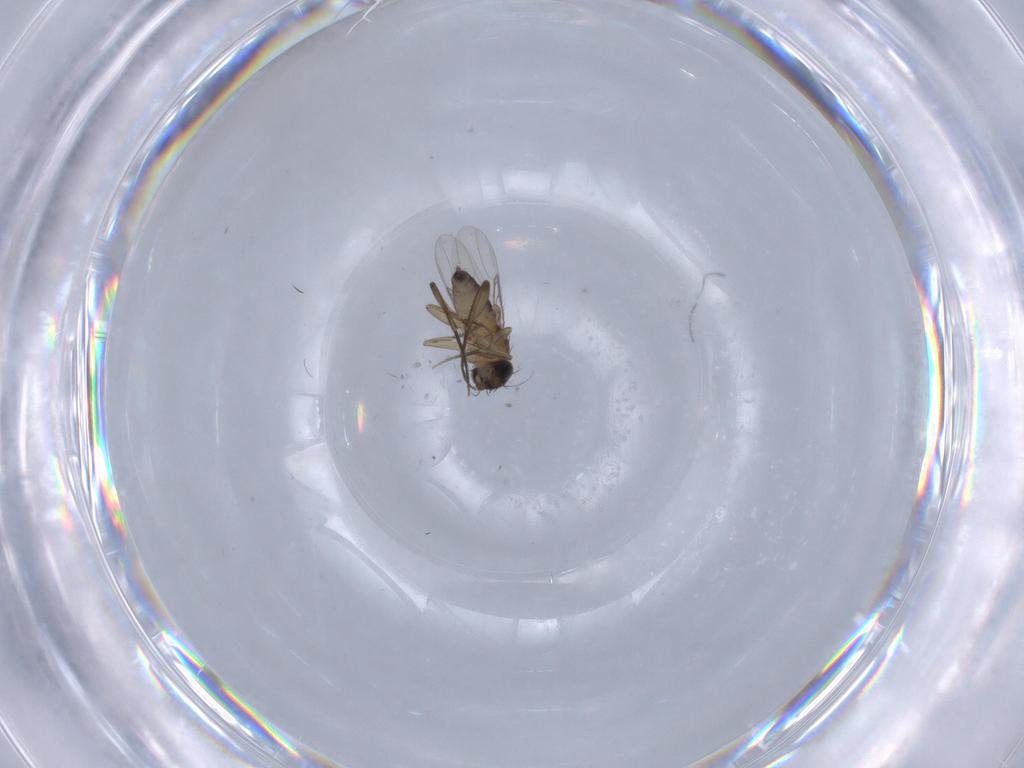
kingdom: Animalia
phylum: Arthropoda
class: Insecta
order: Diptera
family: Phoridae
